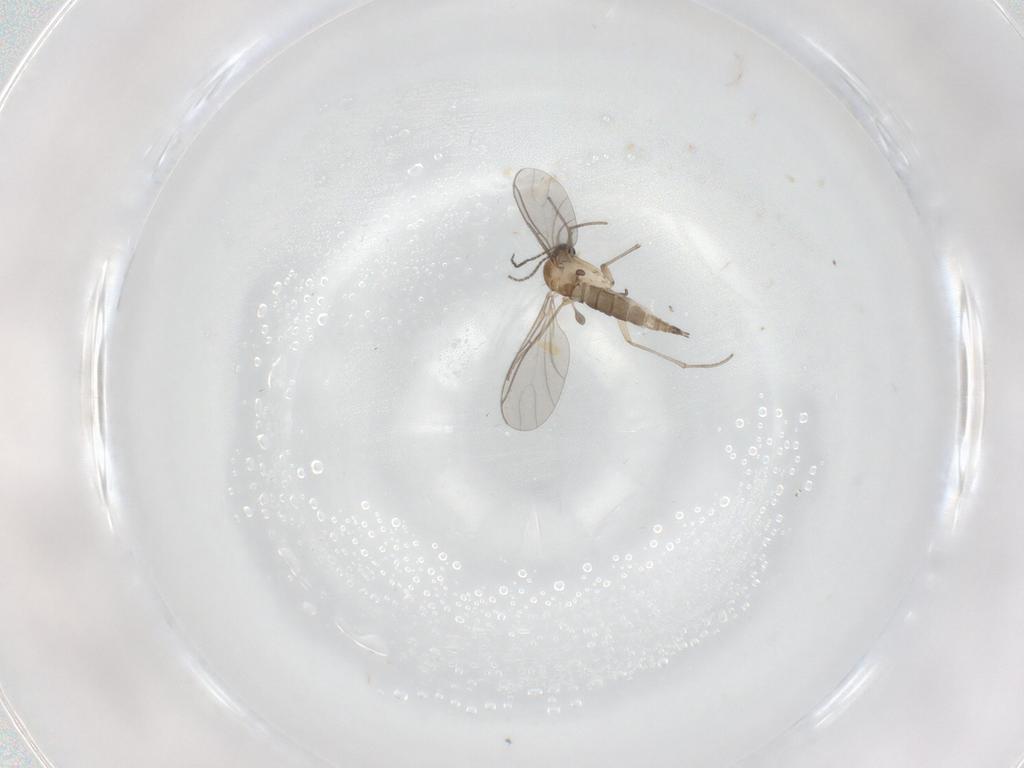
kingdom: Animalia
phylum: Arthropoda
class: Insecta
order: Diptera
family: Sciaridae
